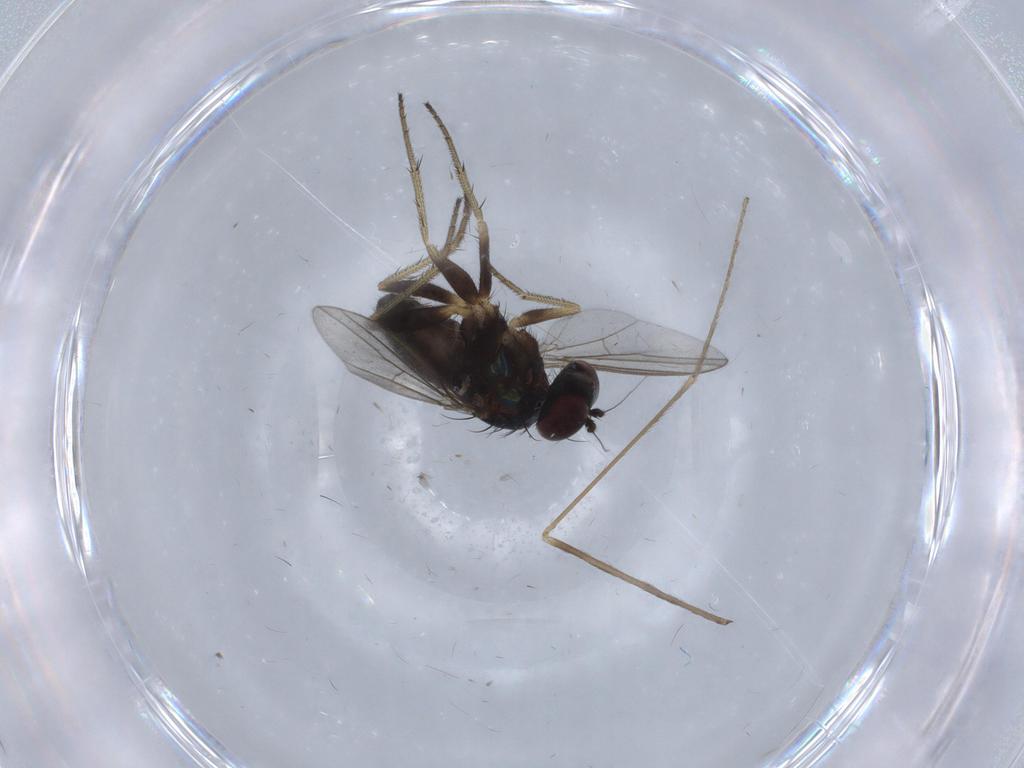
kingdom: Animalia
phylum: Arthropoda
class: Insecta
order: Diptera
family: Limoniidae
